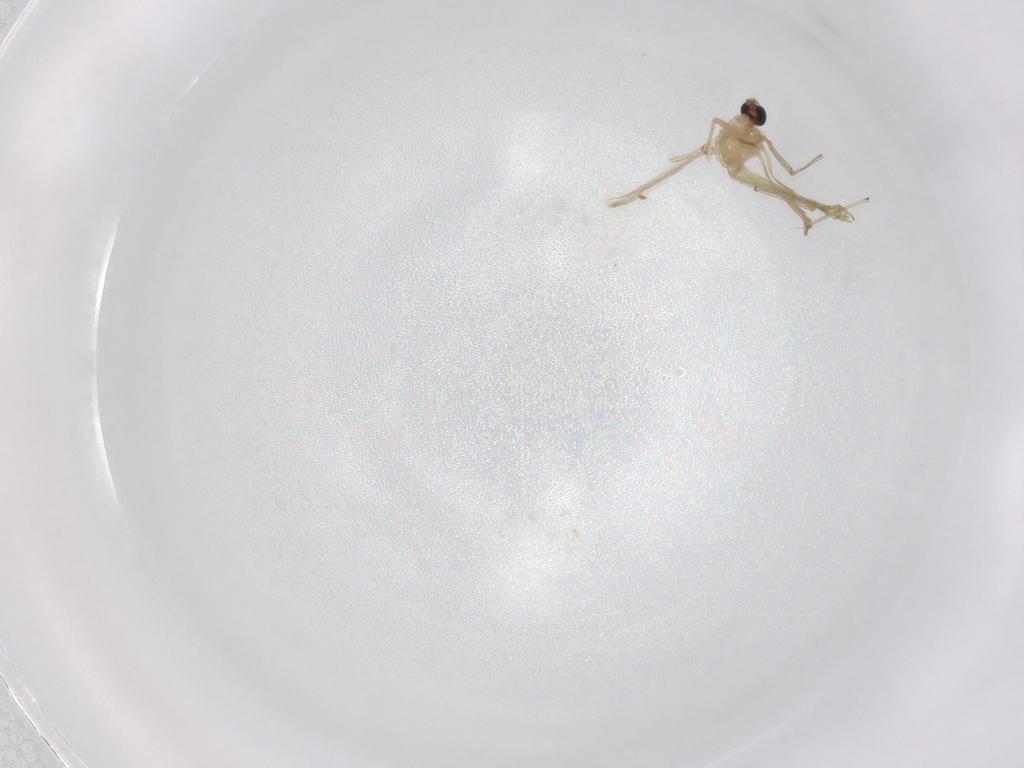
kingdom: Animalia
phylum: Arthropoda
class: Insecta
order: Diptera
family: Chironomidae
